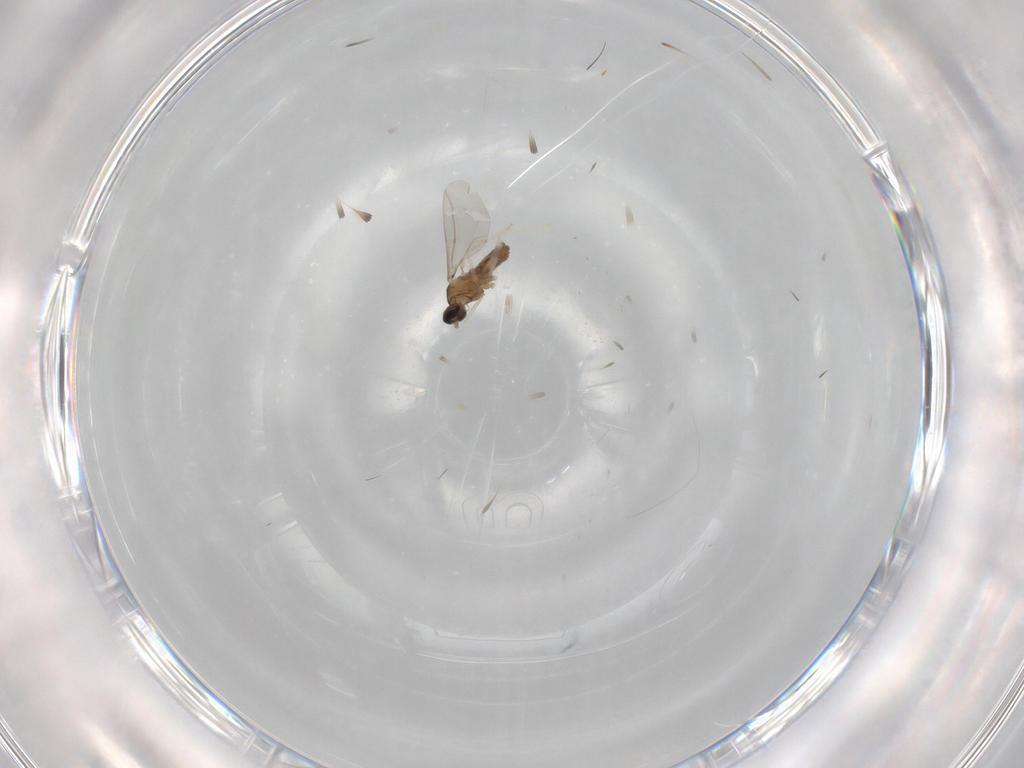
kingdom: Animalia
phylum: Arthropoda
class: Insecta
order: Diptera
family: Cecidomyiidae
